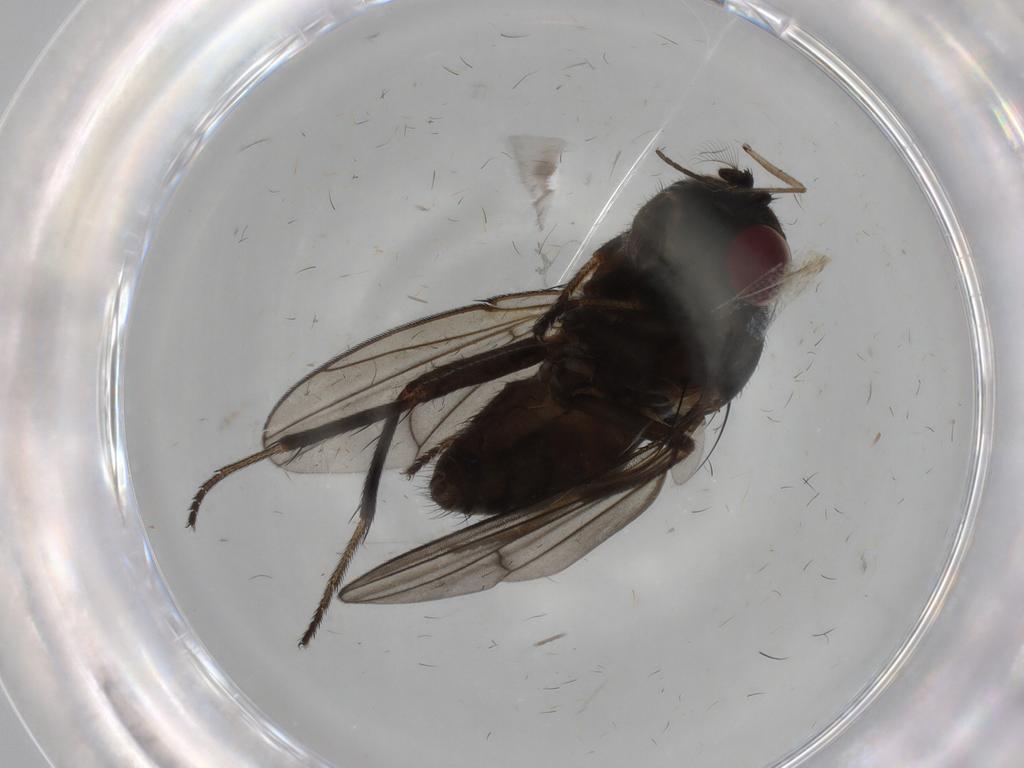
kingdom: Animalia
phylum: Arthropoda
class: Insecta
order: Diptera
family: Ephydridae
